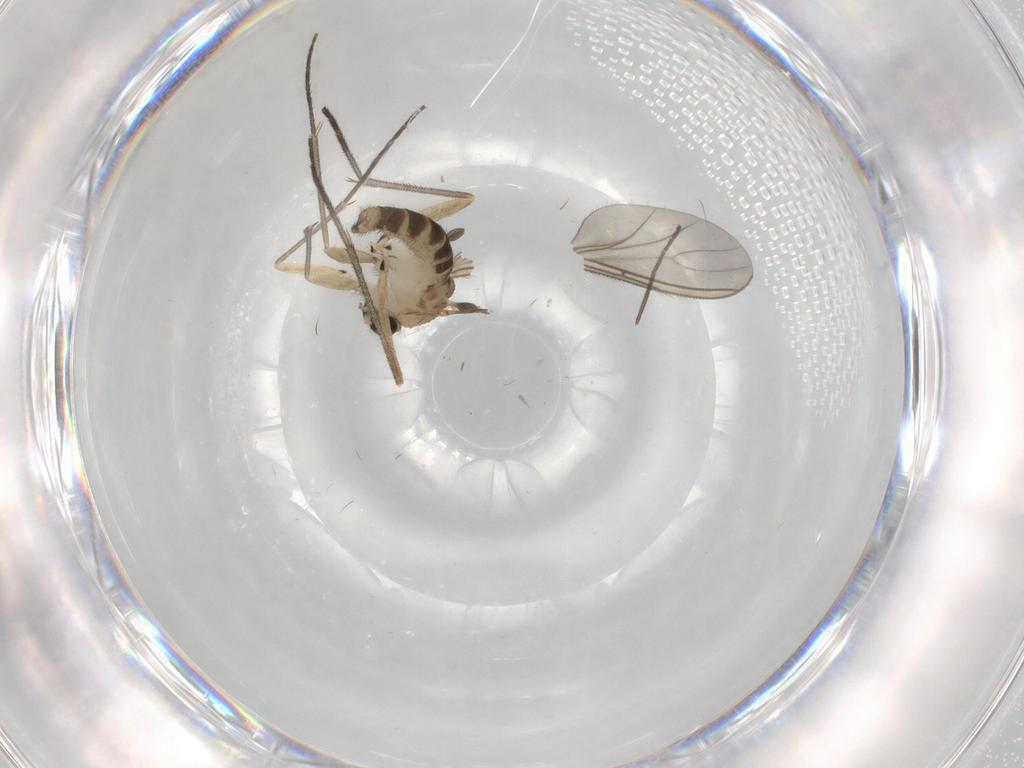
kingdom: Animalia
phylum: Arthropoda
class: Insecta
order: Diptera
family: Sciaridae
